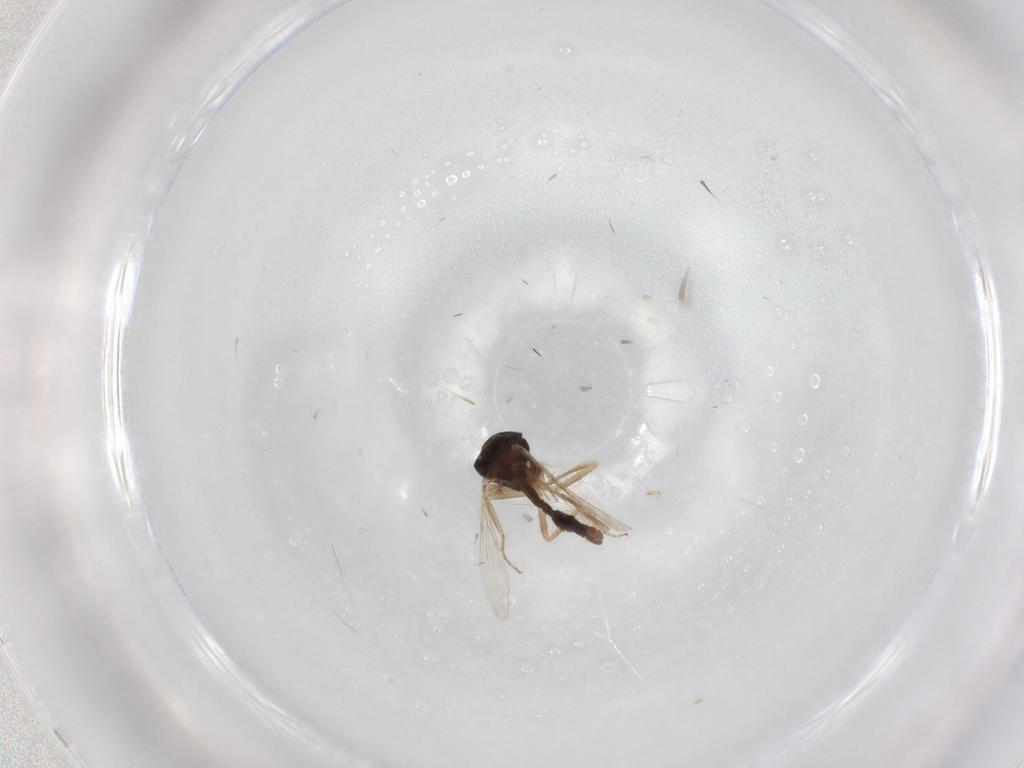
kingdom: Animalia
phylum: Arthropoda
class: Insecta
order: Diptera
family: Ceratopogonidae
